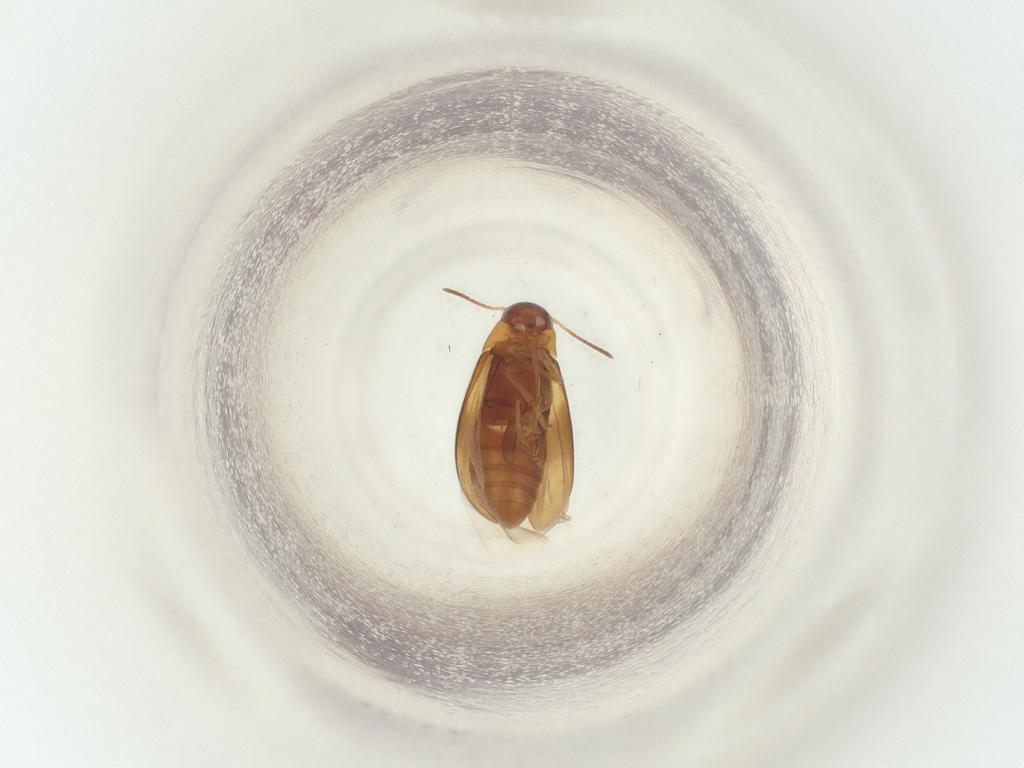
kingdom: Animalia
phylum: Arthropoda
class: Insecta
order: Coleoptera
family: Scraptiidae
